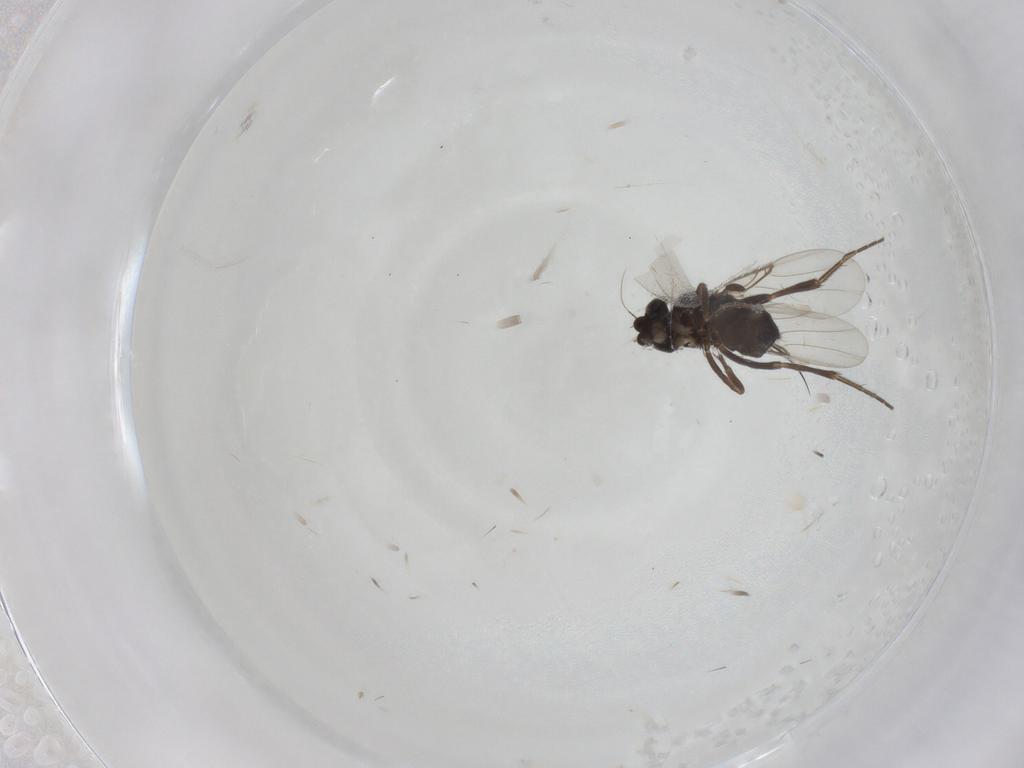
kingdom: Animalia
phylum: Arthropoda
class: Insecta
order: Diptera
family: Phoridae
